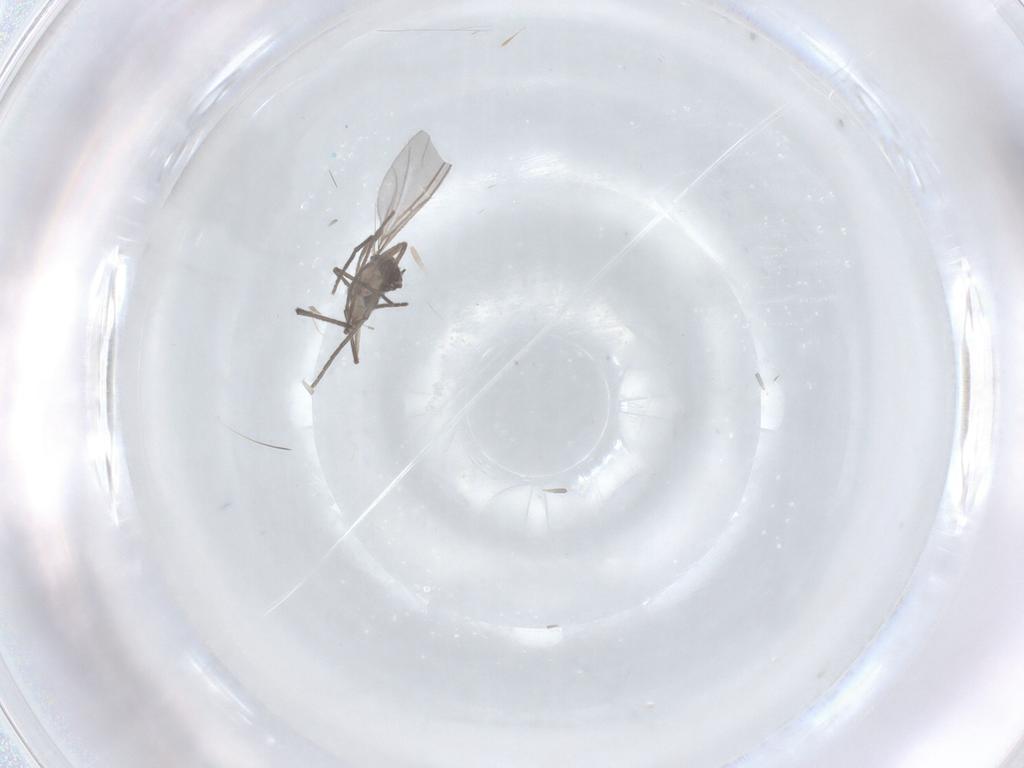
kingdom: Animalia
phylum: Arthropoda
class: Insecta
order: Diptera
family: Sciaridae
